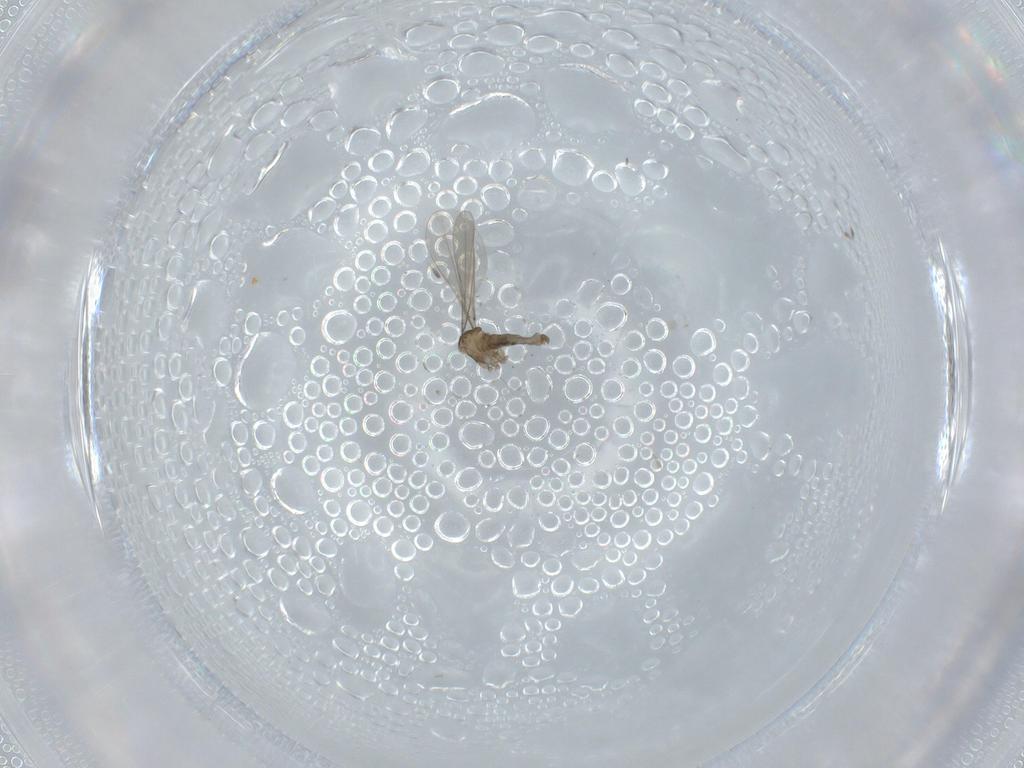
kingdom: Animalia
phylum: Arthropoda
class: Insecta
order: Diptera
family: Cecidomyiidae
